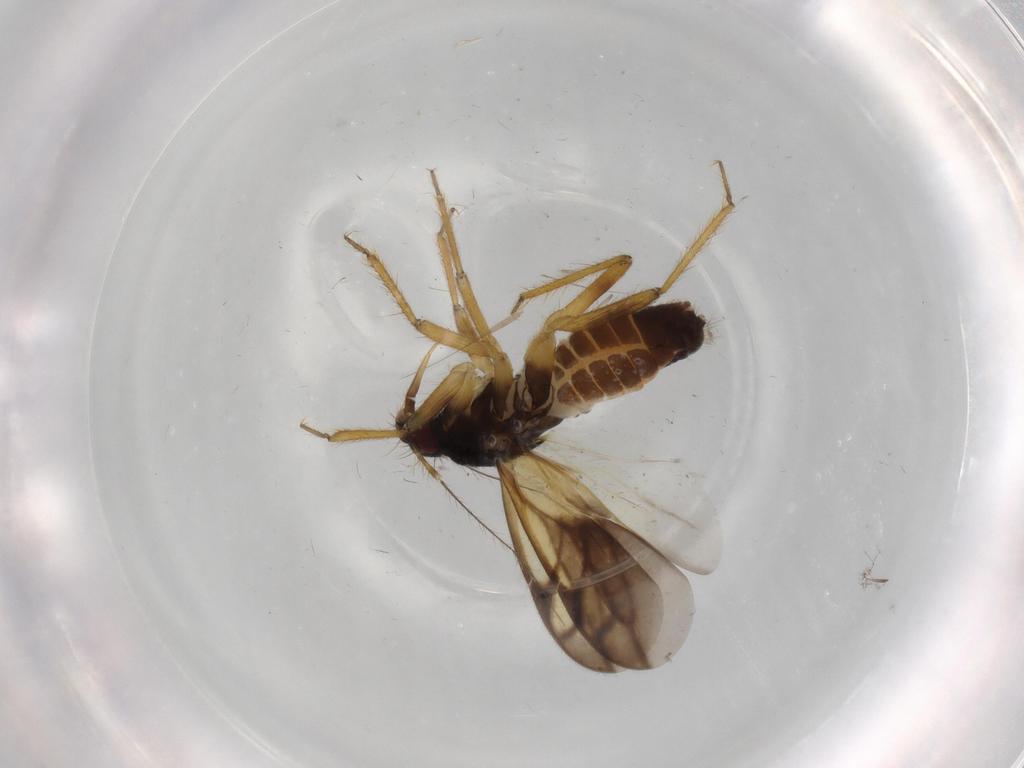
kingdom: Animalia
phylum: Arthropoda
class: Insecta
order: Hemiptera
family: Ceratocombidae
